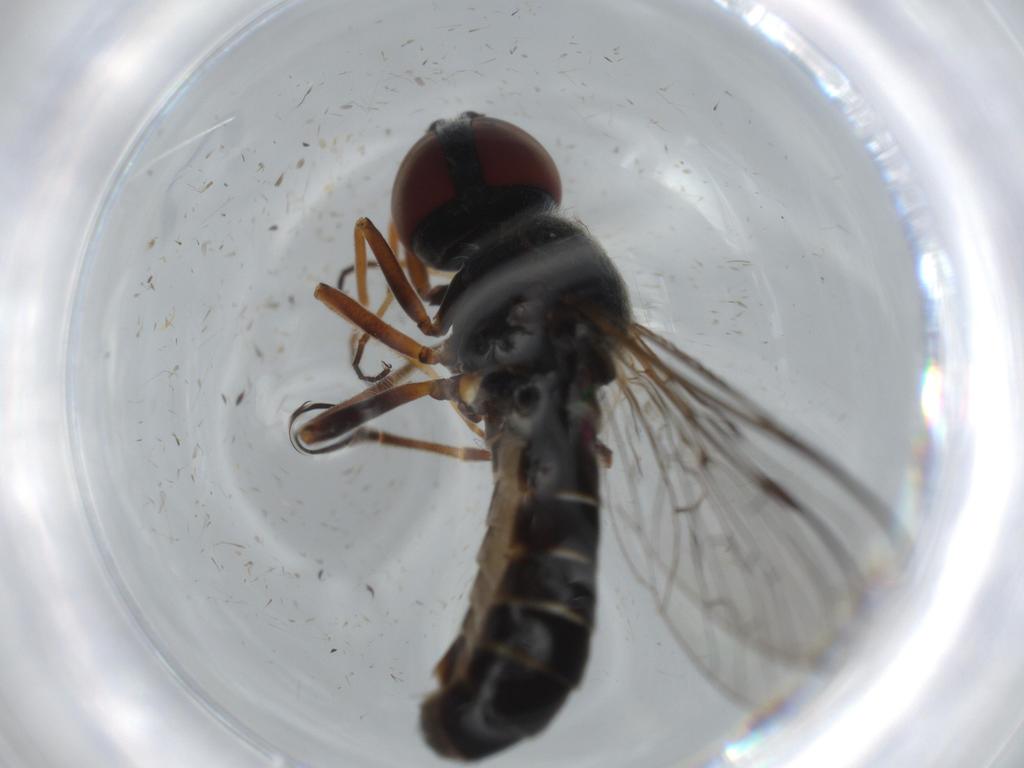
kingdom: Animalia
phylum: Arthropoda
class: Insecta
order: Diptera
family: Bombyliidae
